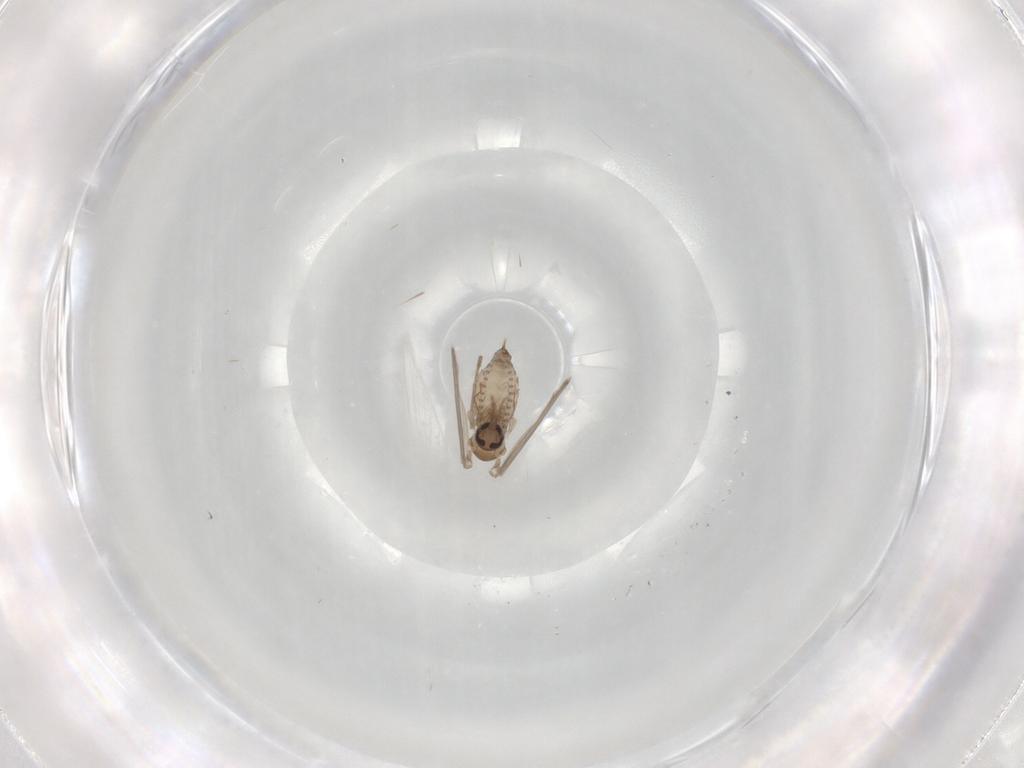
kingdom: Animalia
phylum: Arthropoda
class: Insecta
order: Diptera
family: Psychodidae
